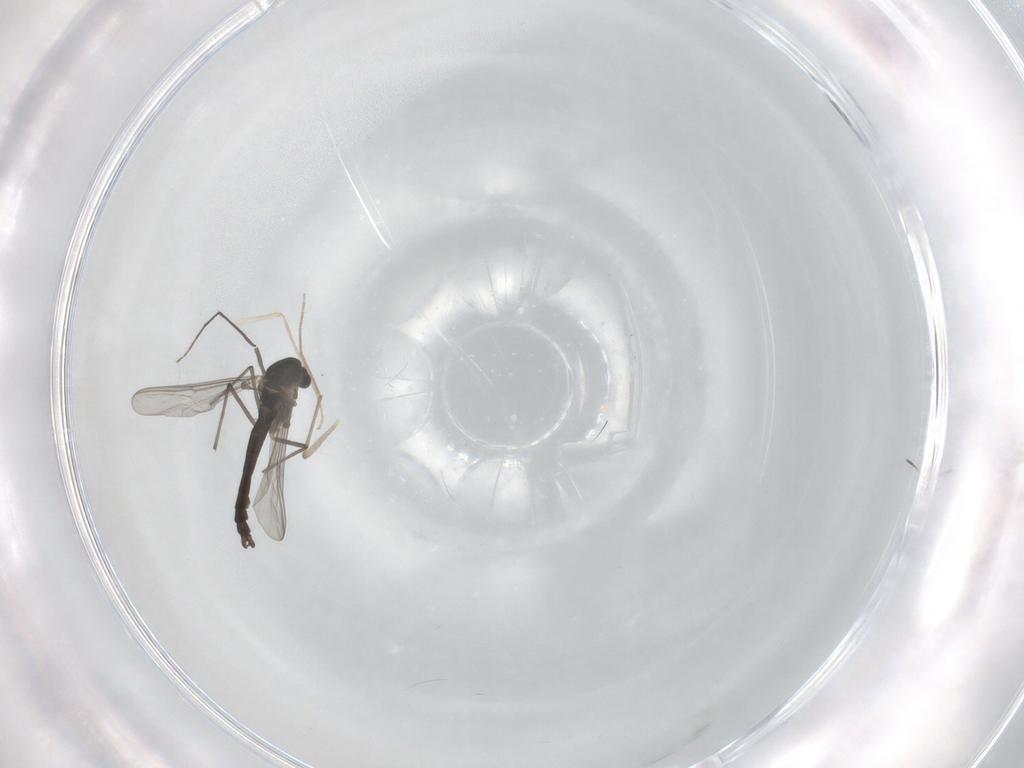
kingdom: Animalia
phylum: Arthropoda
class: Insecta
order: Diptera
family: Chironomidae
